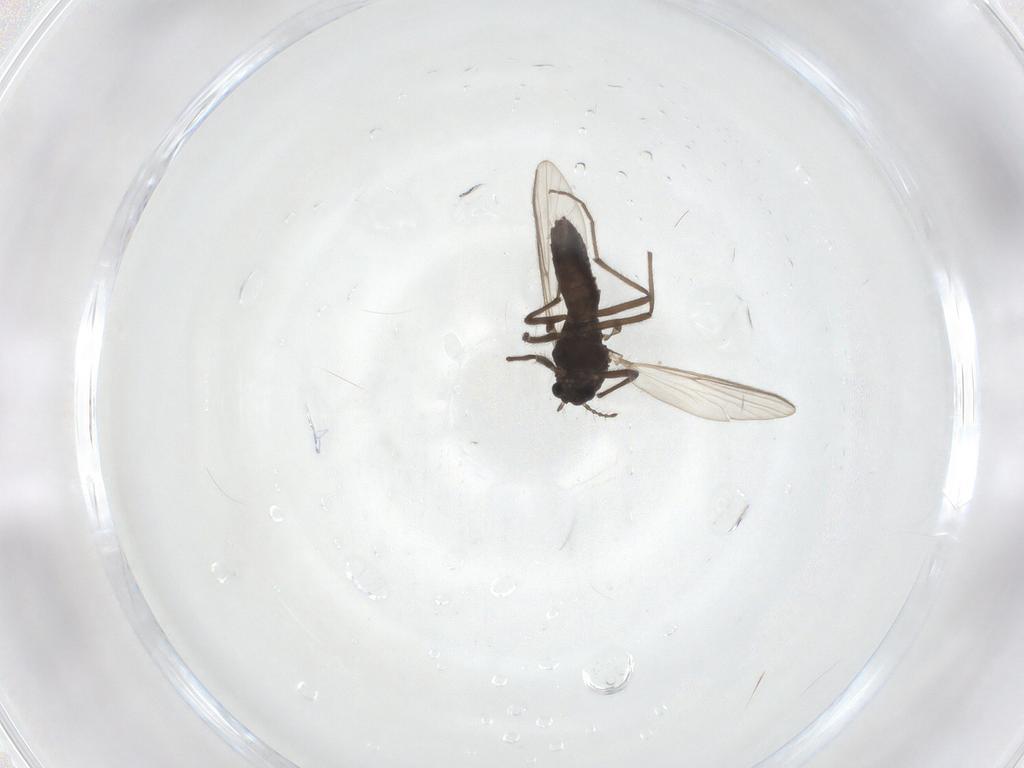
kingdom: Animalia
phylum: Arthropoda
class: Insecta
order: Diptera
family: Chironomidae
